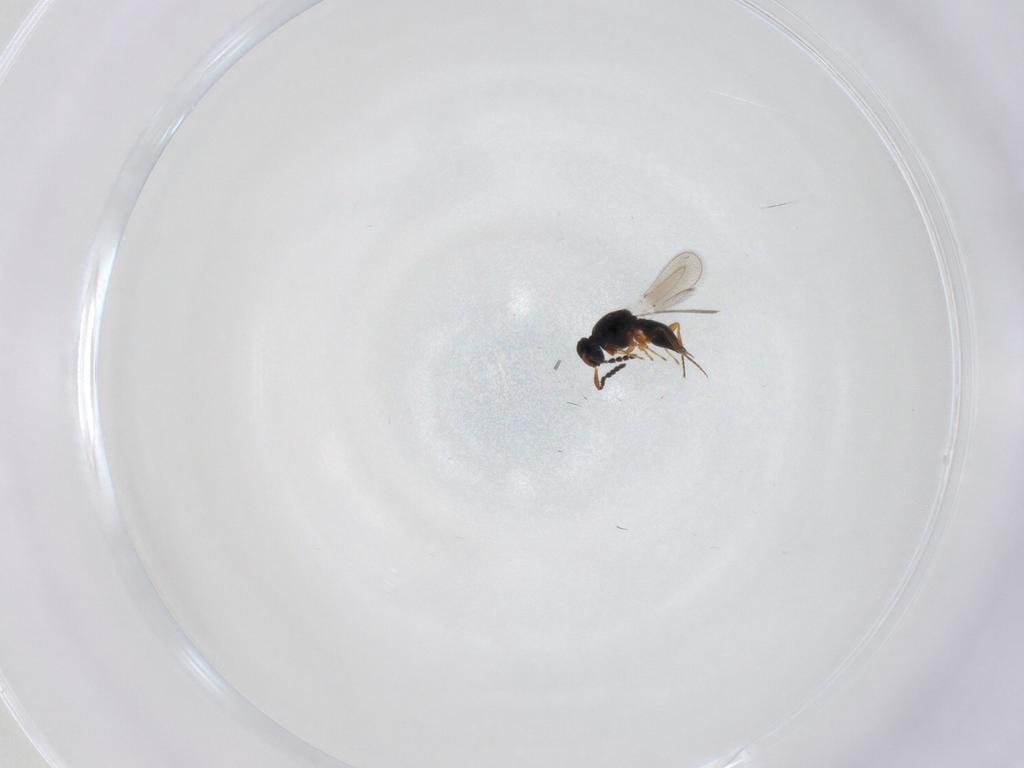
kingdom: Animalia
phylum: Arthropoda
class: Insecta
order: Hymenoptera
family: Platygastridae
